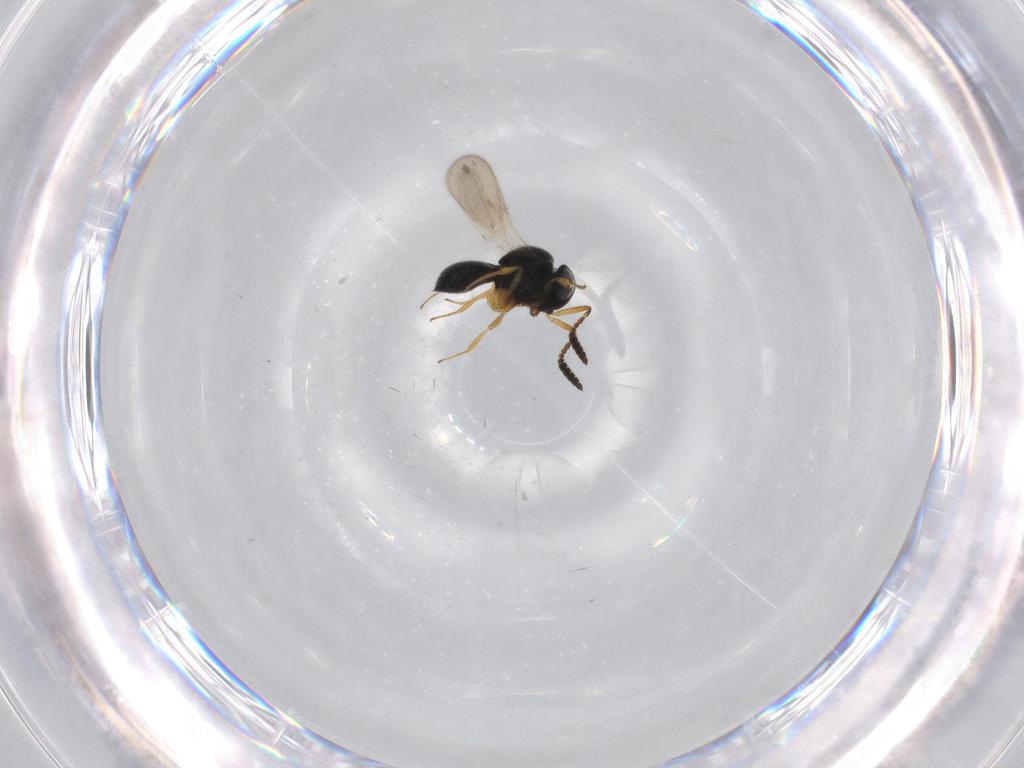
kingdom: Animalia
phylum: Arthropoda
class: Insecta
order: Hymenoptera
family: Scelionidae
